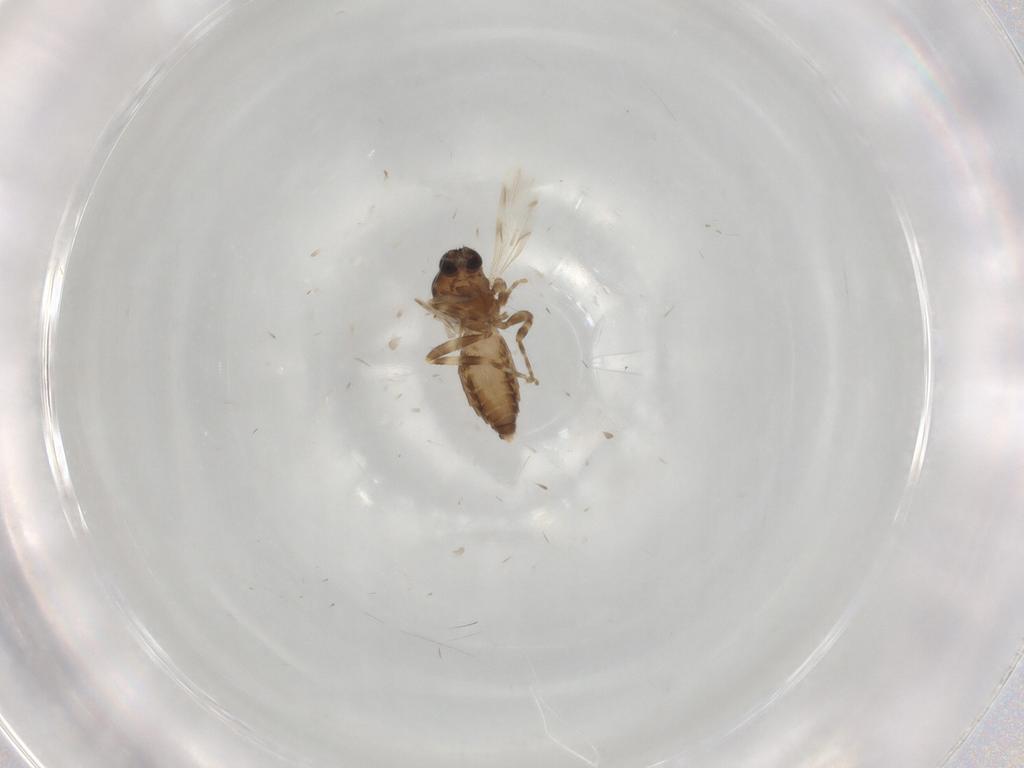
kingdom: Animalia
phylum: Arthropoda
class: Insecta
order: Diptera
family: Ceratopogonidae
